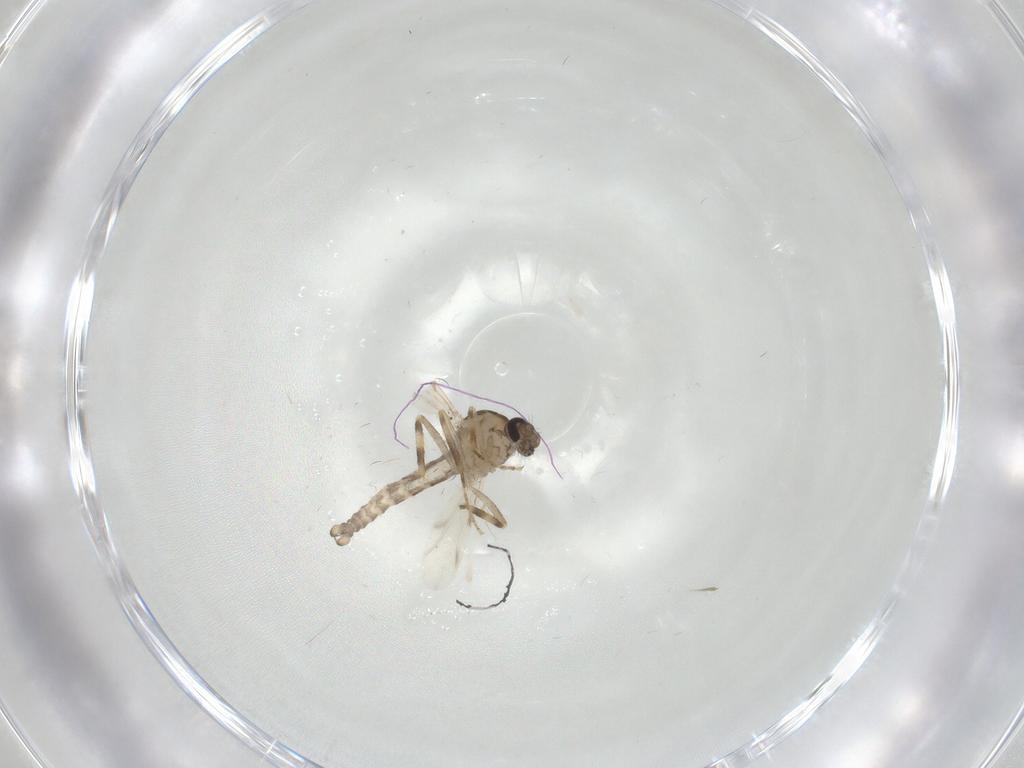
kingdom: Animalia
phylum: Arthropoda
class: Insecta
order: Diptera
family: Ceratopogonidae
